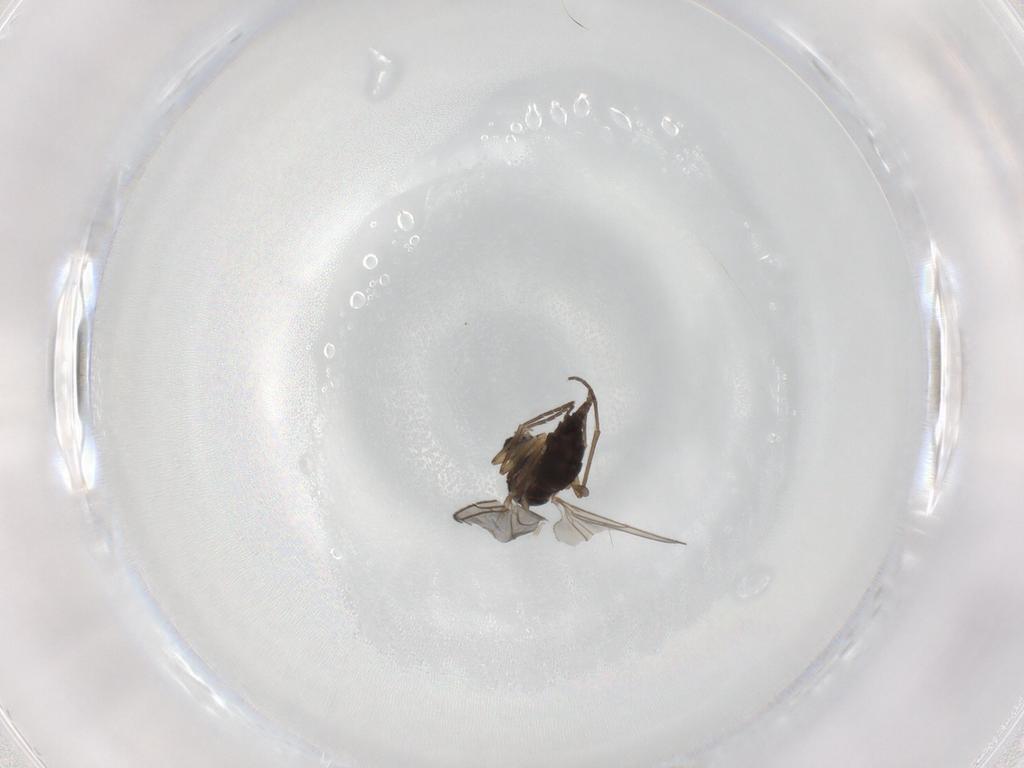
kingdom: Animalia
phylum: Arthropoda
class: Insecta
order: Diptera
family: Sciaridae
